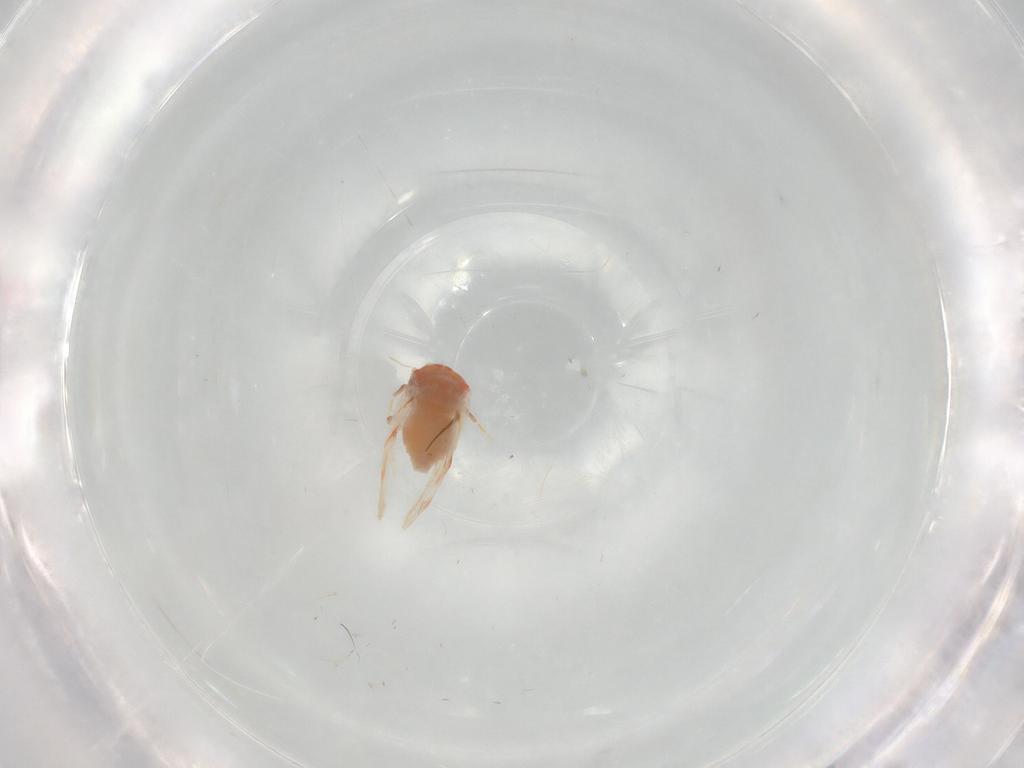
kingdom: Animalia
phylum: Arthropoda
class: Insecta
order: Hemiptera
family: Aleyrodidae
